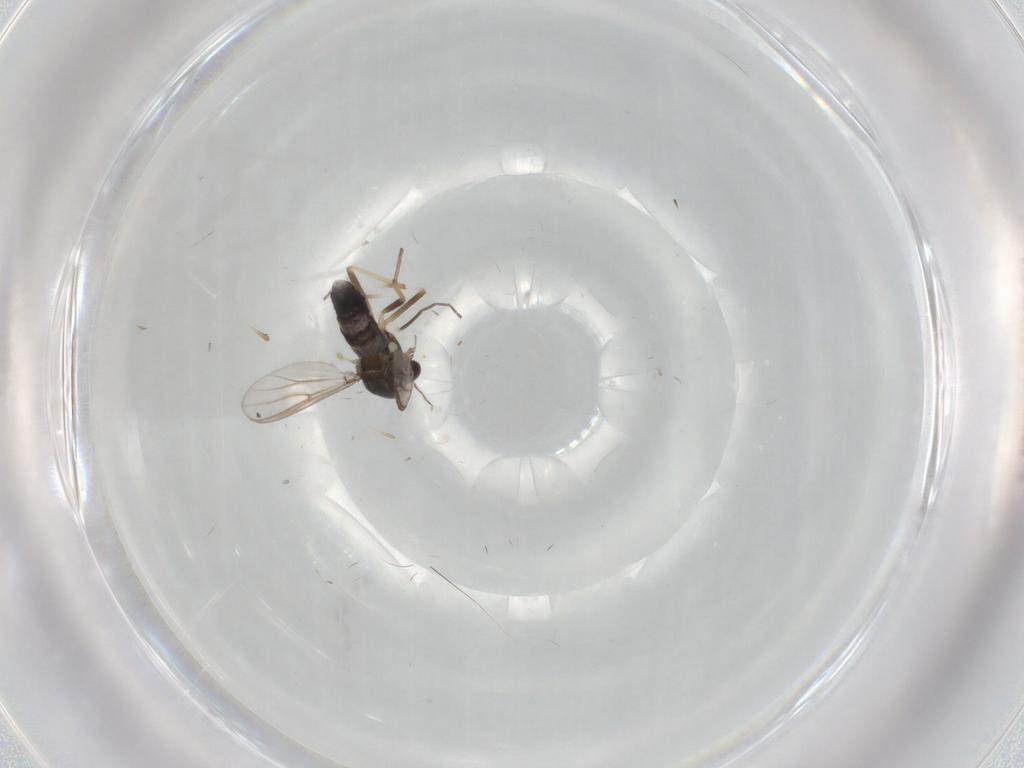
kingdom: Animalia
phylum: Arthropoda
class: Insecta
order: Diptera
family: Chironomidae
